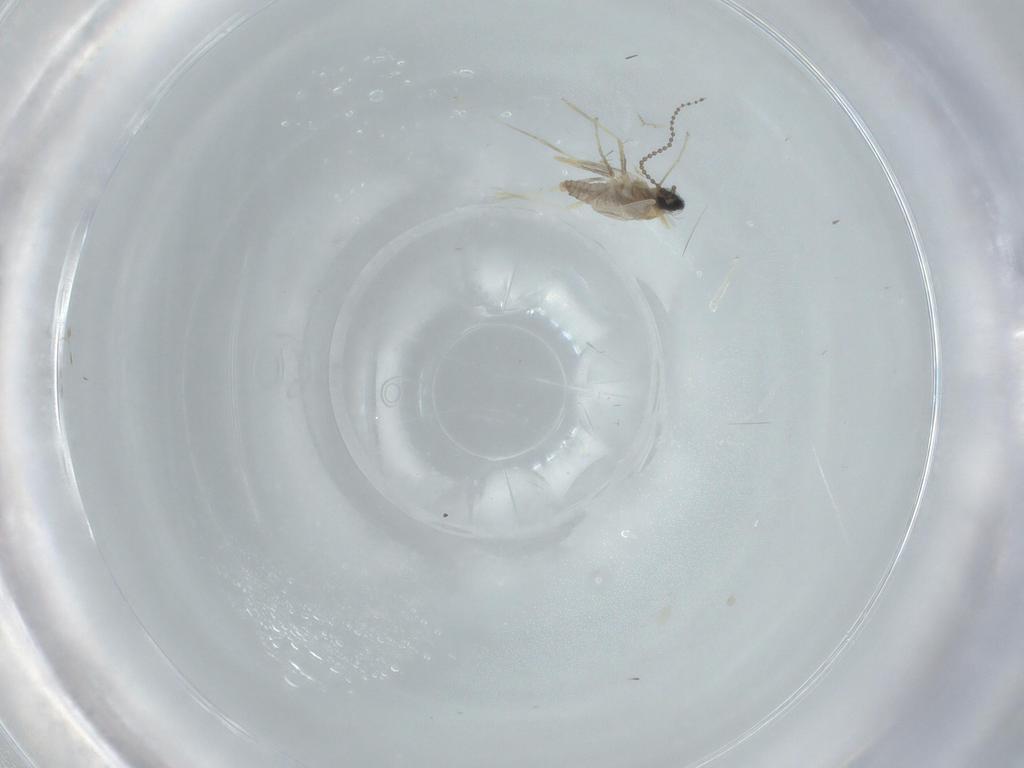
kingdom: Animalia
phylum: Arthropoda
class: Insecta
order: Diptera
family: Cecidomyiidae
